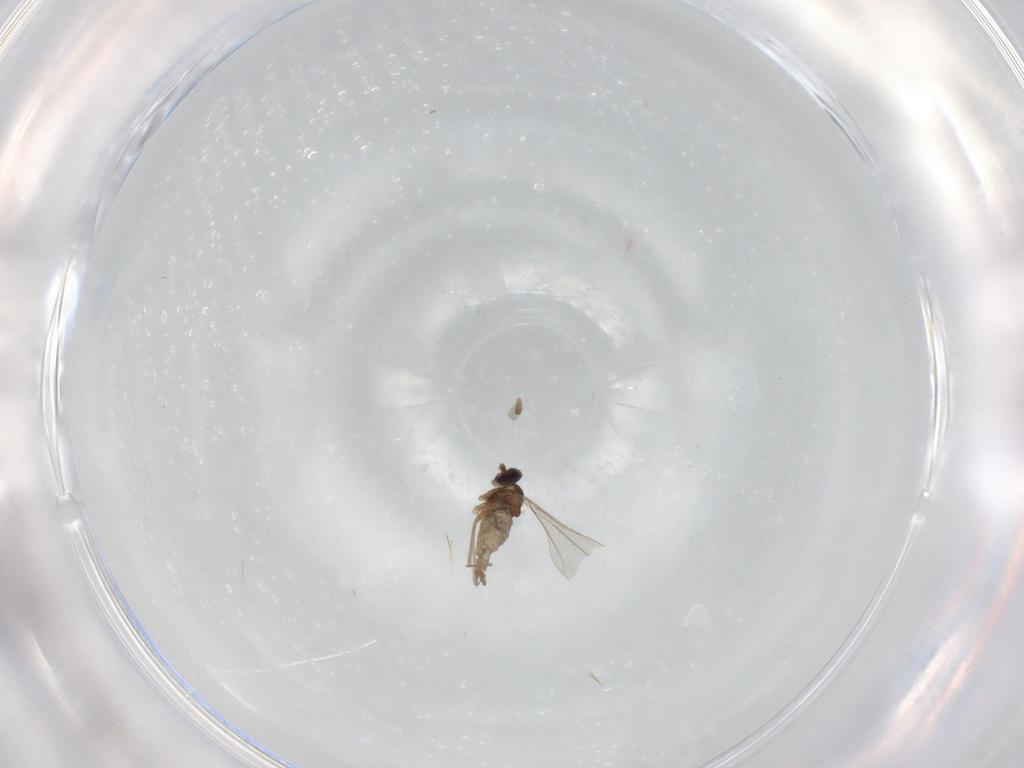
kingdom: Animalia
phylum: Arthropoda
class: Insecta
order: Diptera
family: Cecidomyiidae
